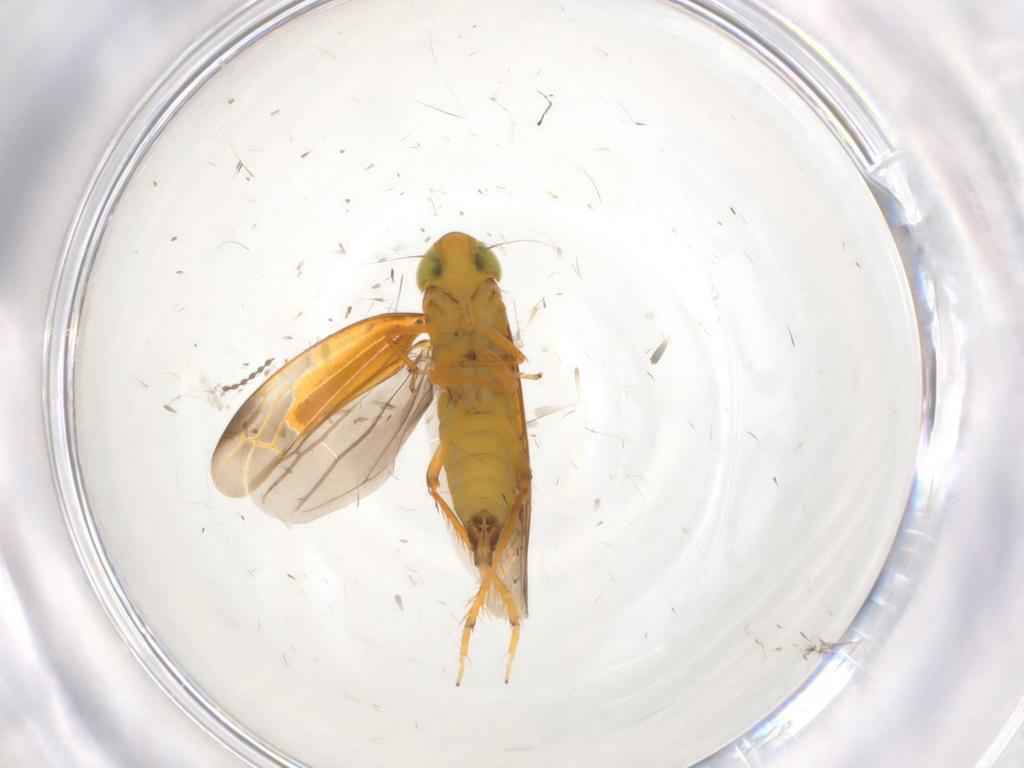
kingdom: Animalia
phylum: Arthropoda
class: Insecta
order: Hemiptera
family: Cicadellidae
